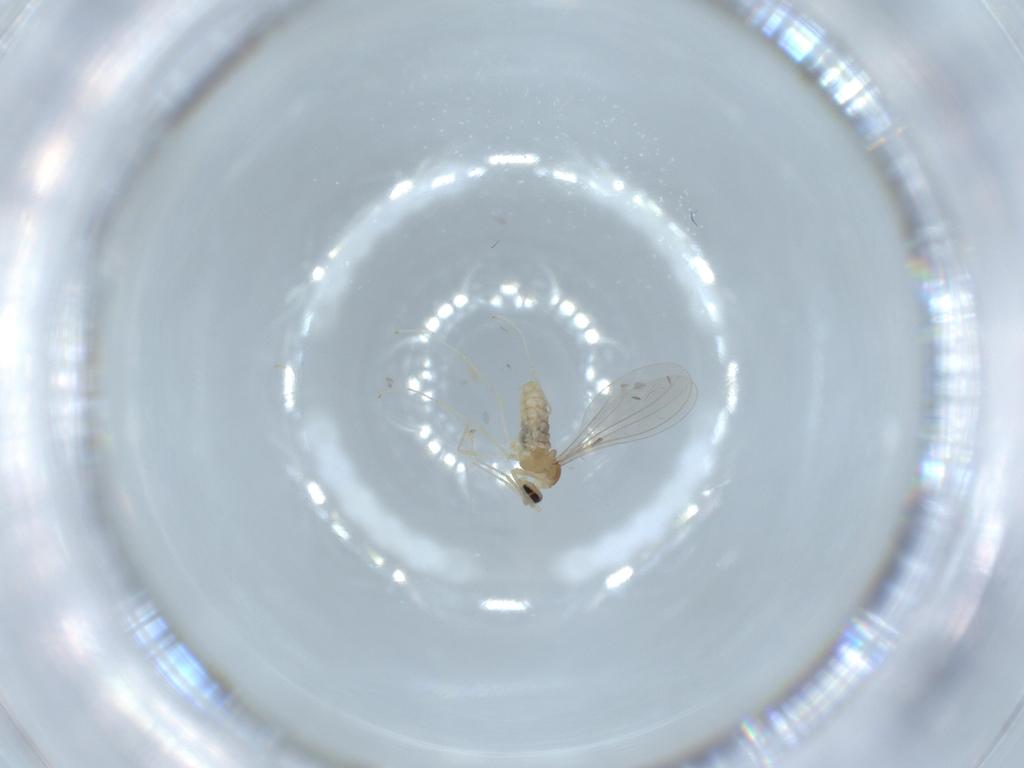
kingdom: Animalia
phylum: Arthropoda
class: Insecta
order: Diptera
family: Cecidomyiidae
